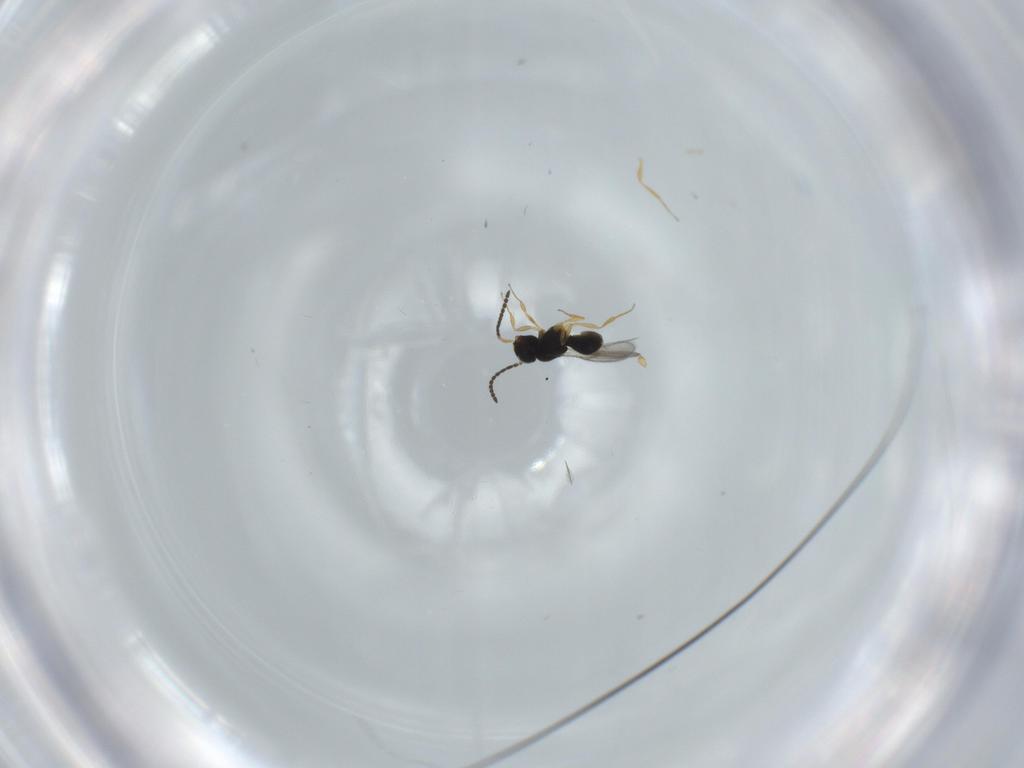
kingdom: Animalia
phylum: Arthropoda
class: Insecta
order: Hymenoptera
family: Scelionidae
